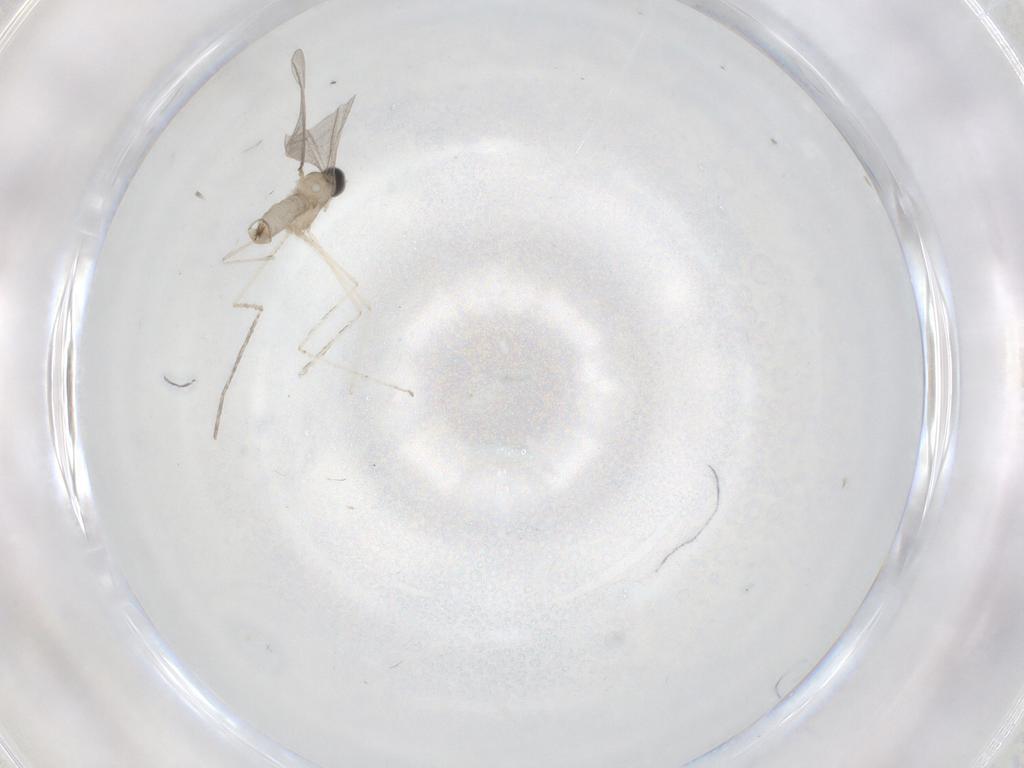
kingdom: Animalia
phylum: Arthropoda
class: Insecta
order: Diptera
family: Cecidomyiidae
